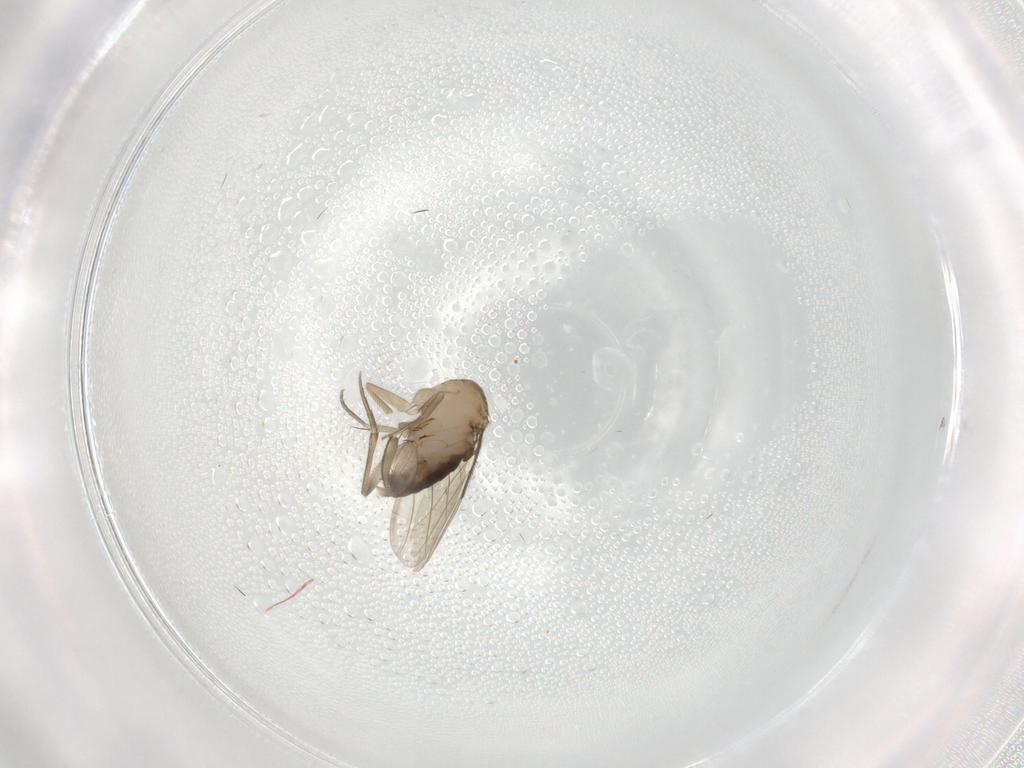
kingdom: Animalia
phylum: Arthropoda
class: Insecta
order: Diptera
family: Phoridae
